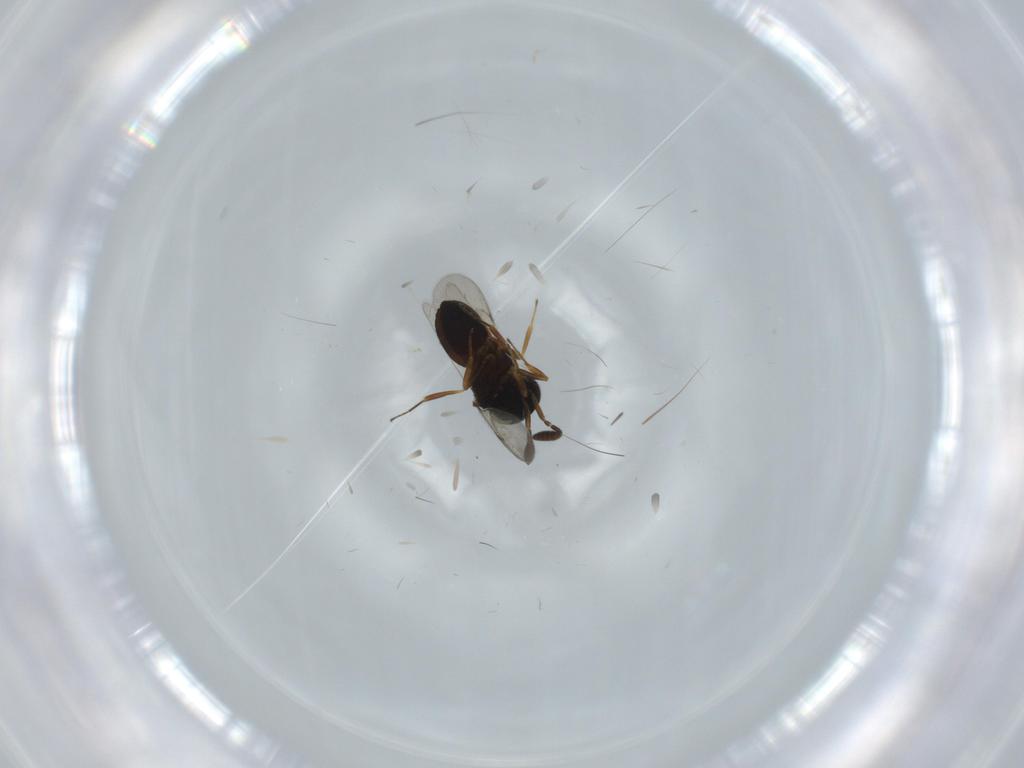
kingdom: Animalia
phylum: Arthropoda
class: Insecta
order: Coleoptera
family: Curculionidae
